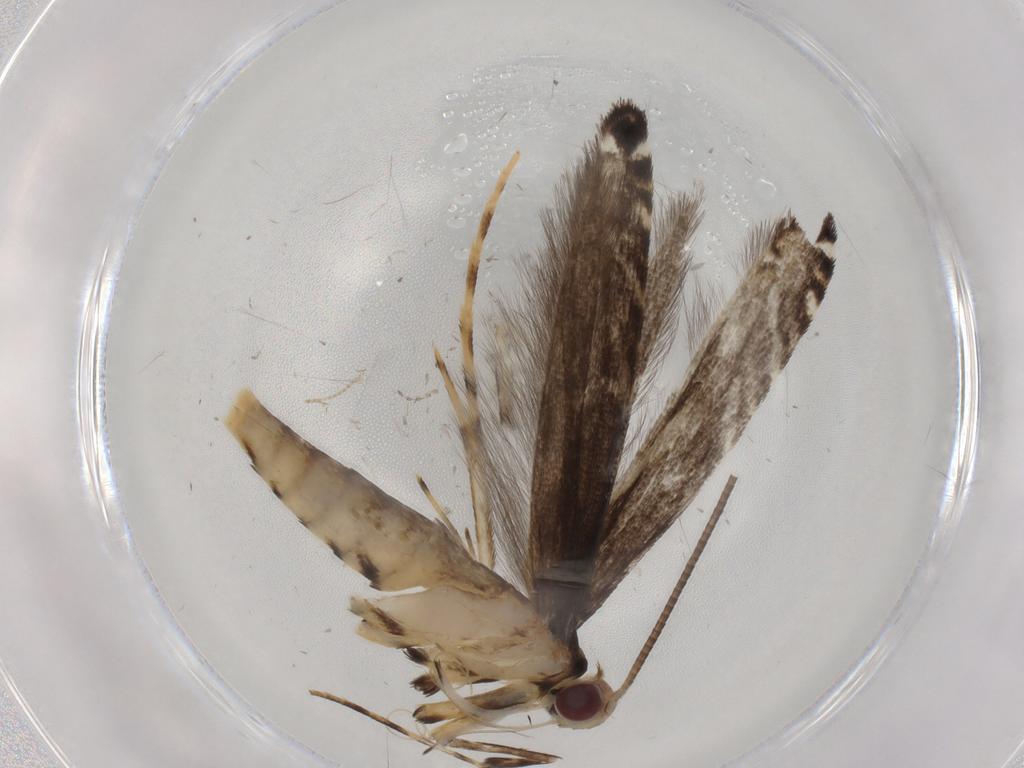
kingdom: Animalia
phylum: Arthropoda
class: Insecta
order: Lepidoptera
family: Gracillariidae
